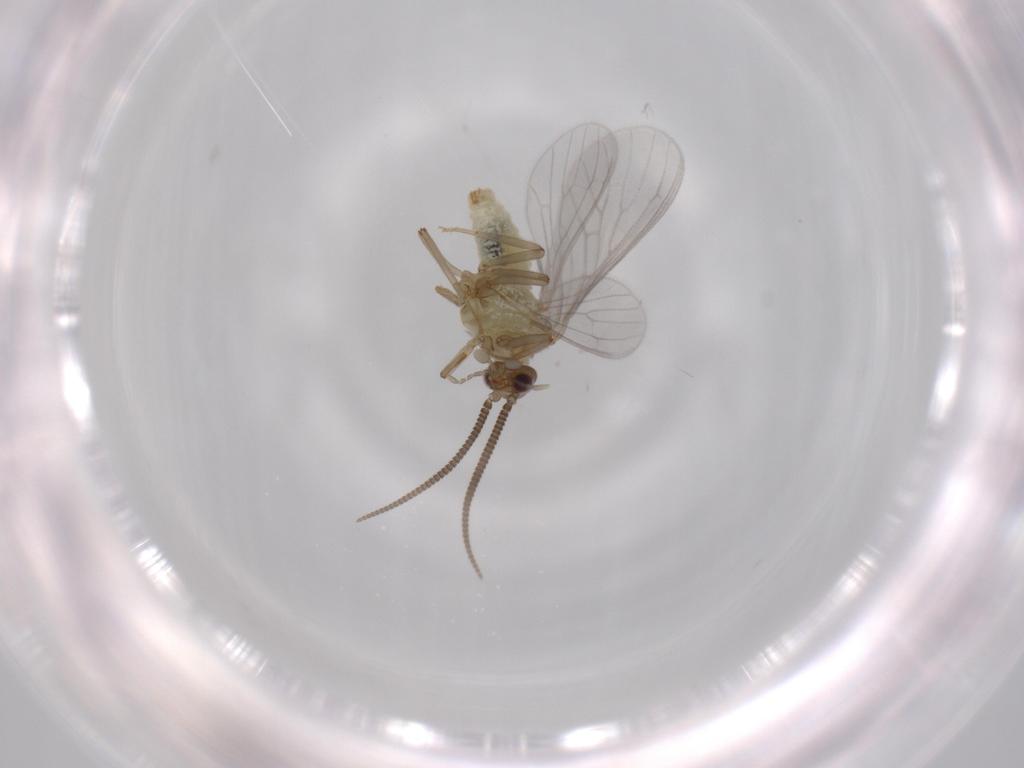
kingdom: Animalia
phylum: Arthropoda
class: Insecta
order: Neuroptera
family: Coniopterygidae
